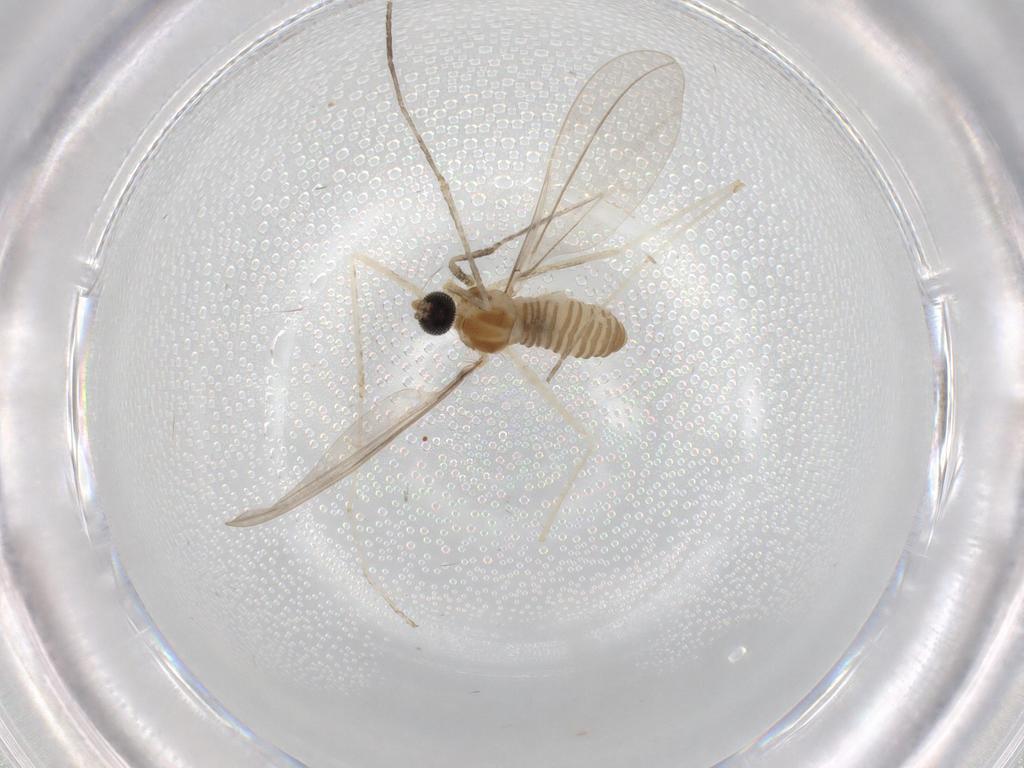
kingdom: Animalia
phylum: Arthropoda
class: Insecta
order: Diptera
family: Cecidomyiidae
